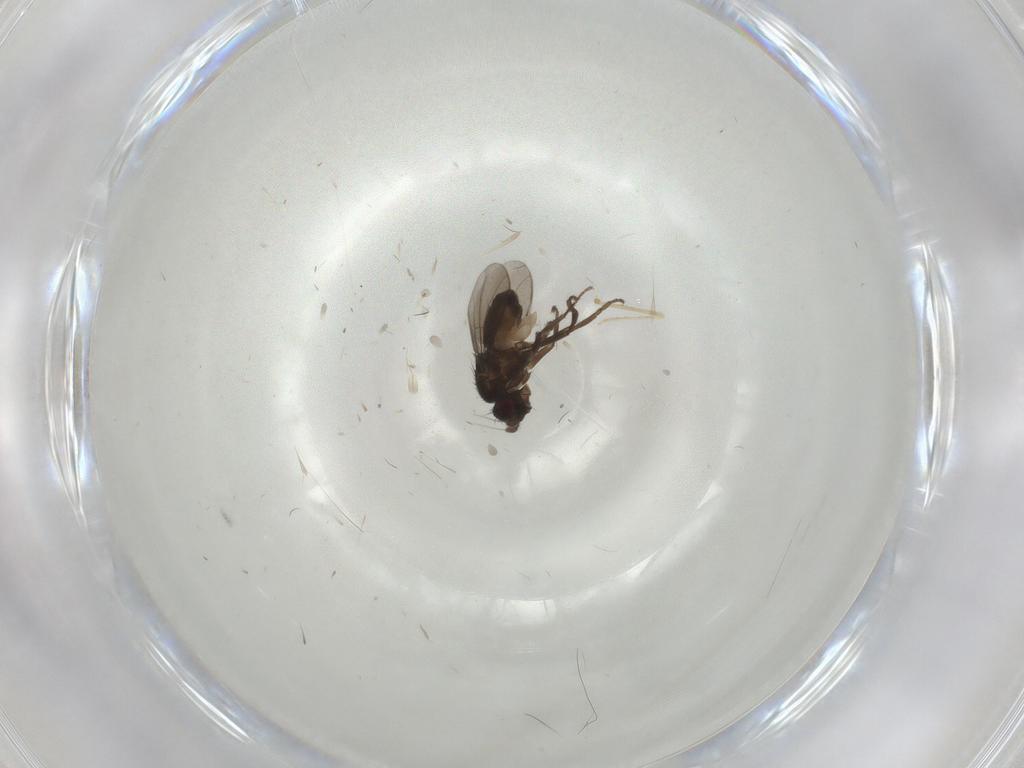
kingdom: Animalia
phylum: Arthropoda
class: Insecta
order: Diptera
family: Sphaeroceridae
